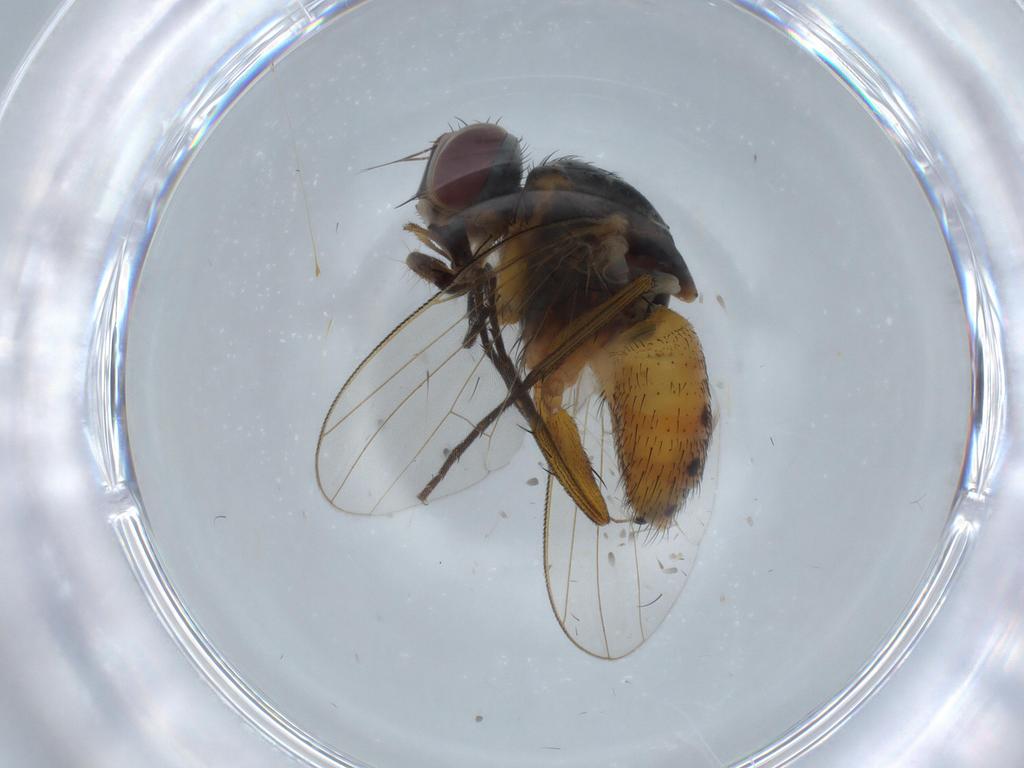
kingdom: Animalia
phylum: Arthropoda
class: Insecta
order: Diptera
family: Muscidae
